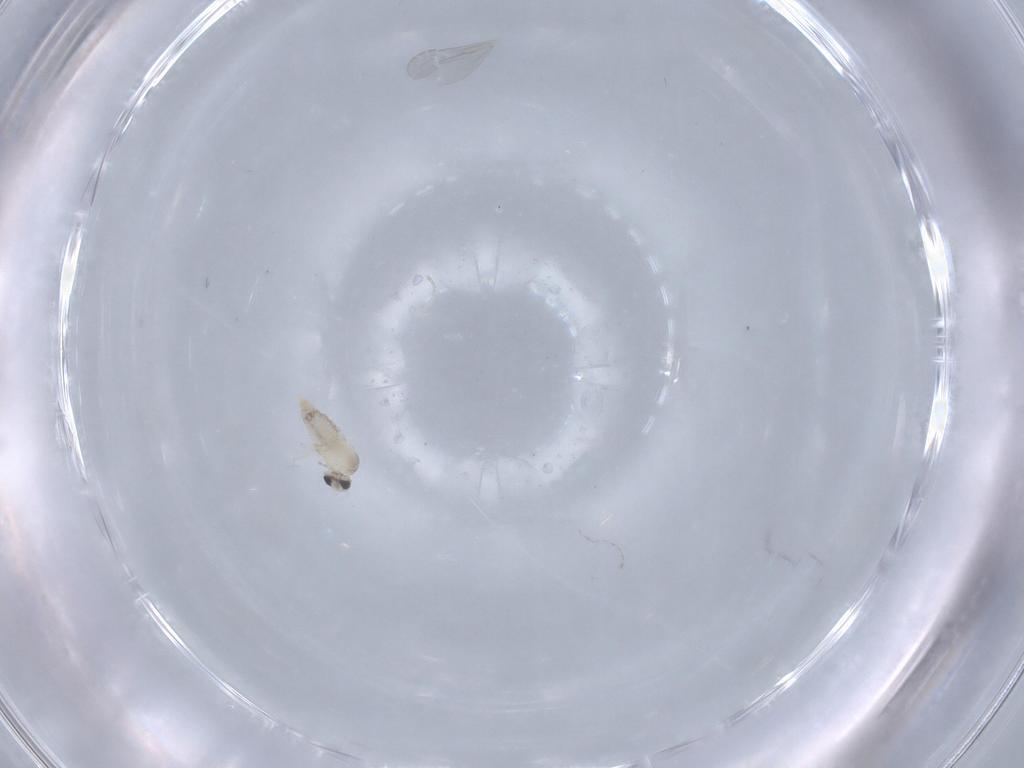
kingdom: Animalia
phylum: Arthropoda
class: Insecta
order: Diptera
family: Cecidomyiidae
